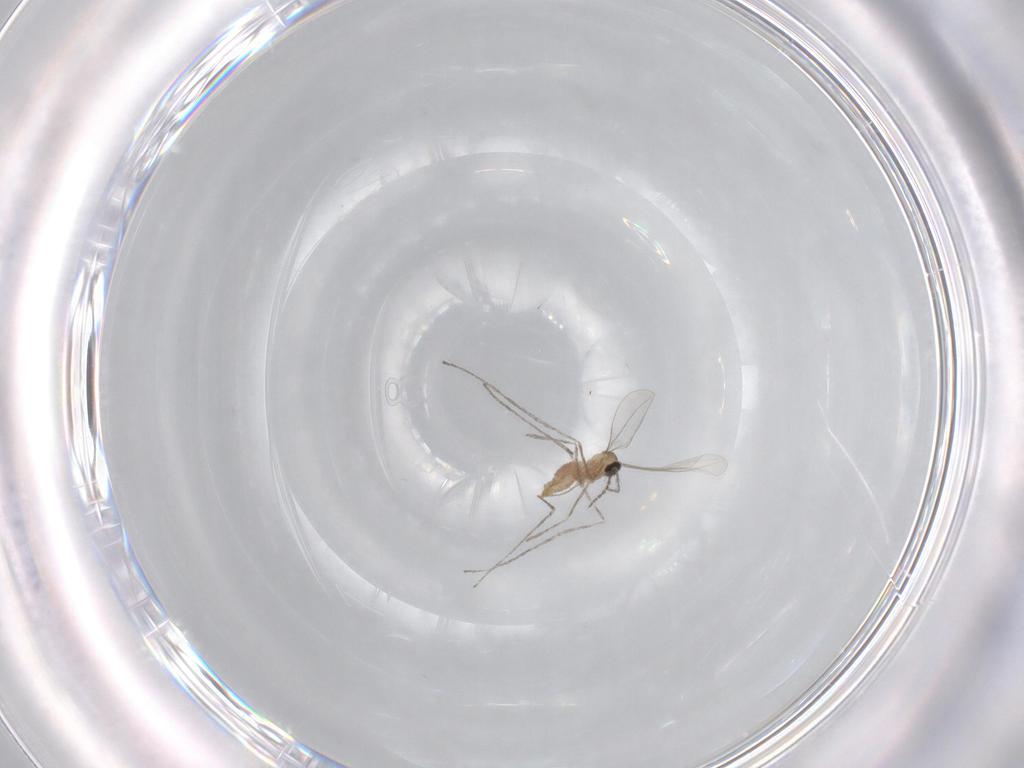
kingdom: Animalia
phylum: Arthropoda
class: Insecta
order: Diptera
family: Cecidomyiidae
